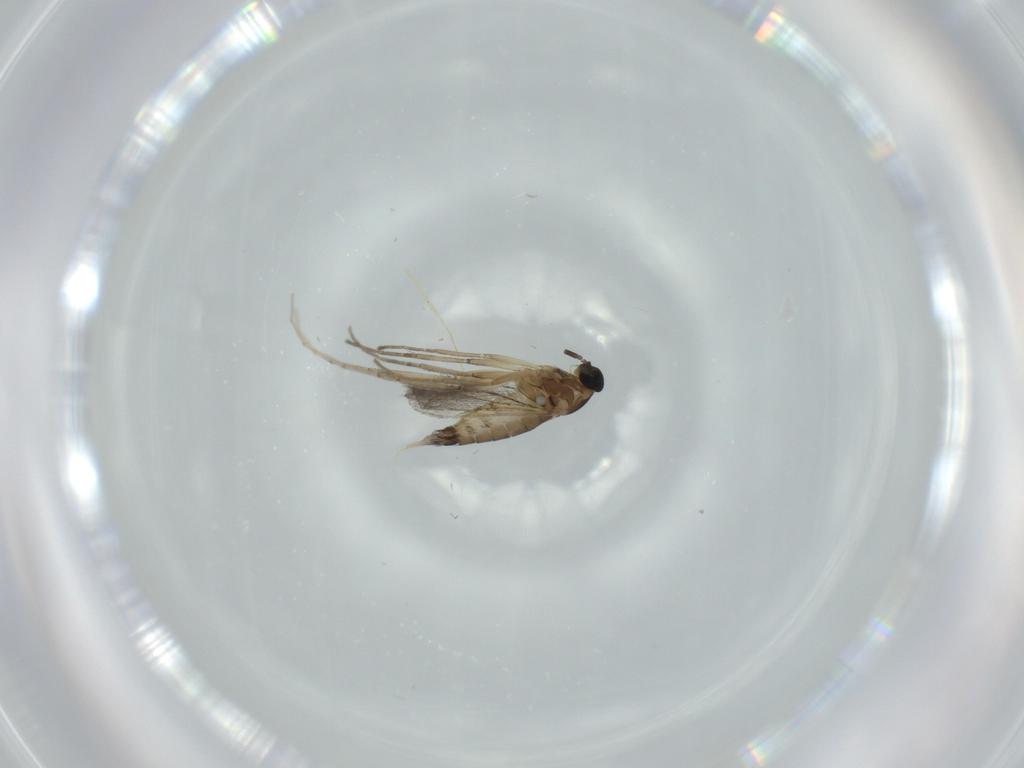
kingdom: Animalia
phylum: Arthropoda
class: Insecta
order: Diptera
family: Cecidomyiidae
